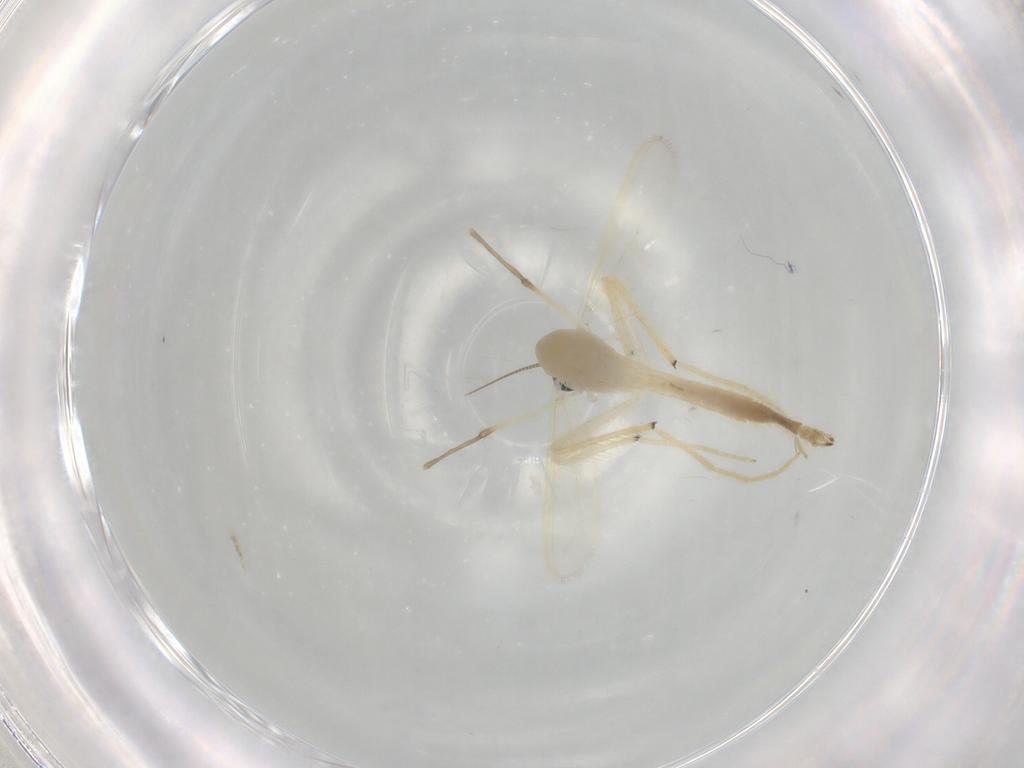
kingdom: Animalia
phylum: Arthropoda
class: Insecta
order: Diptera
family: Chironomidae
